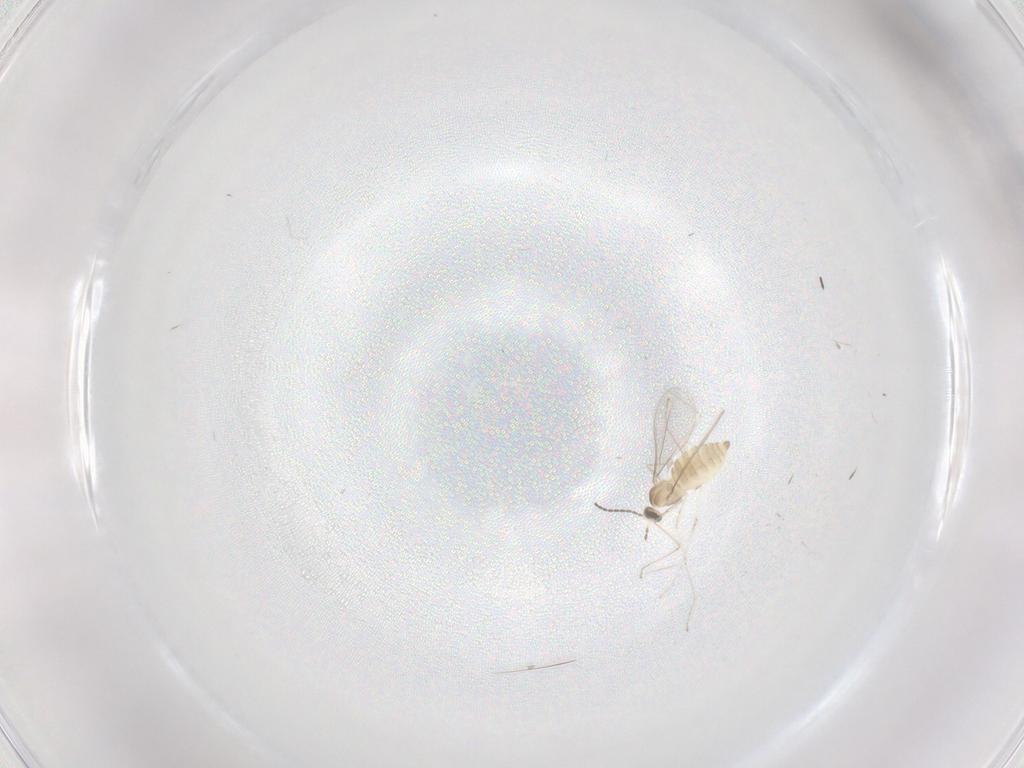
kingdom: Animalia
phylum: Arthropoda
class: Insecta
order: Diptera
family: Cecidomyiidae
